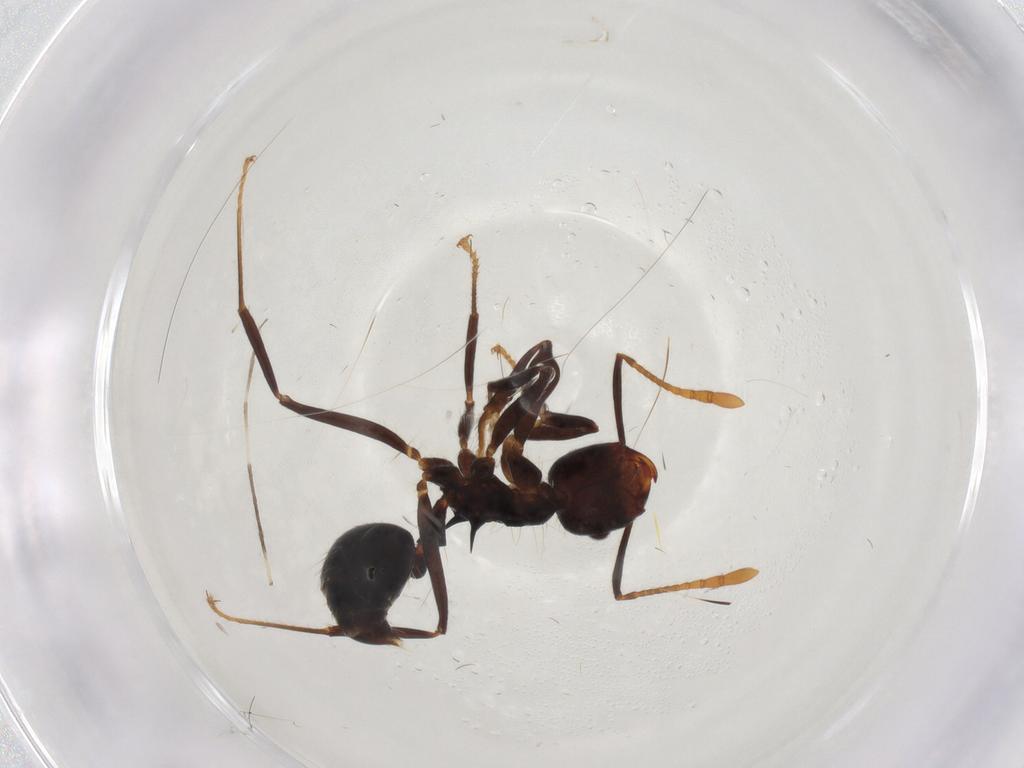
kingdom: Animalia
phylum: Arthropoda
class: Insecta
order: Hymenoptera
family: Formicidae
